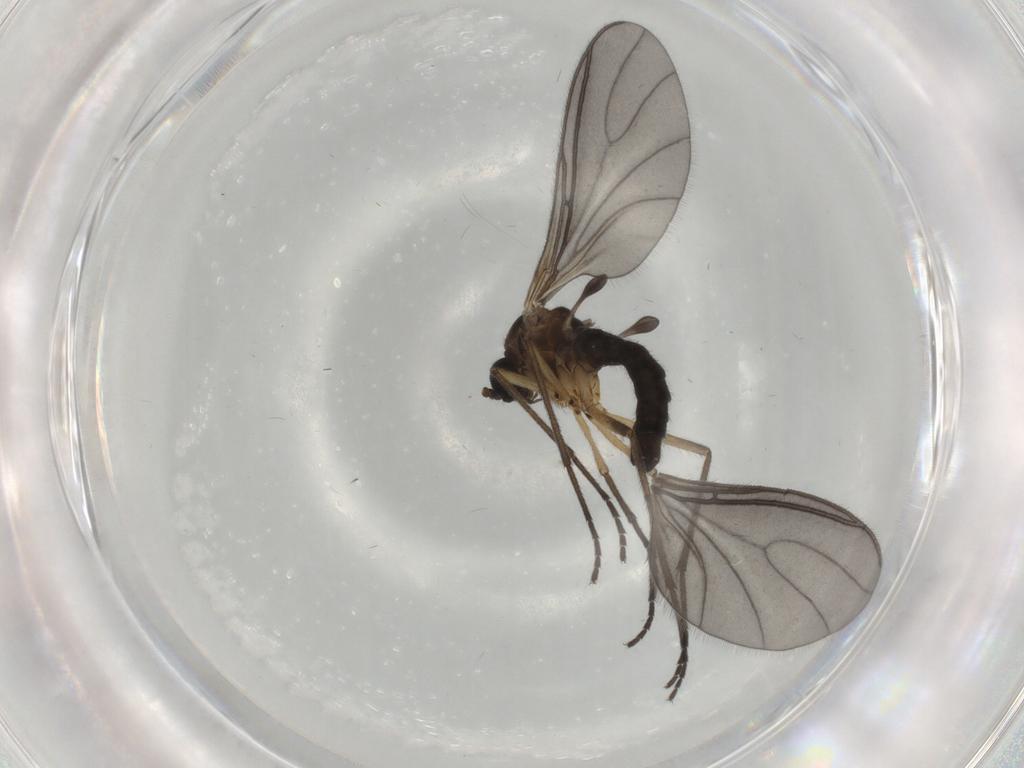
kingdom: Animalia
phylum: Arthropoda
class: Insecta
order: Diptera
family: Sciaridae
